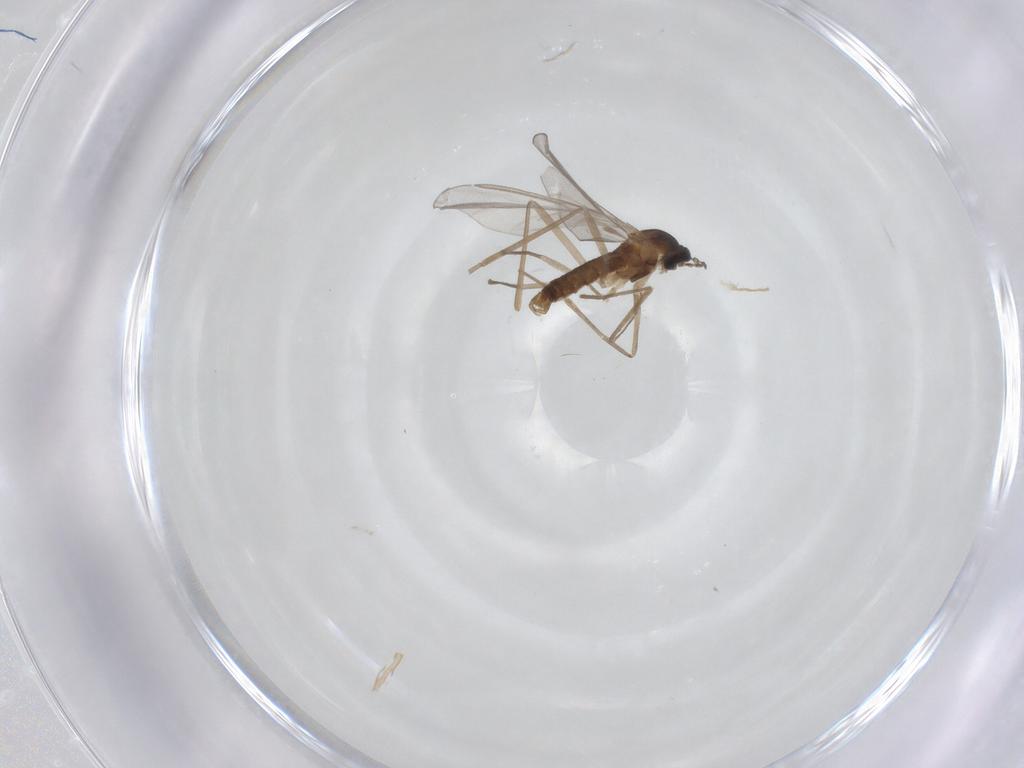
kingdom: Animalia
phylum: Arthropoda
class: Insecta
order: Diptera
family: Cecidomyiidae
